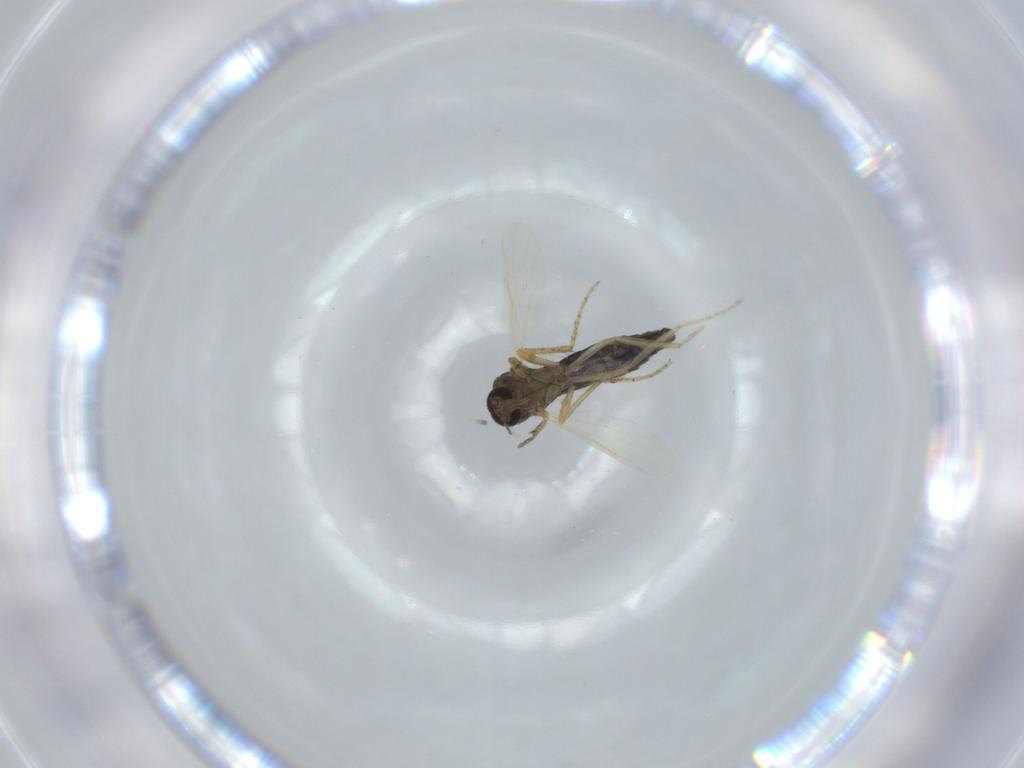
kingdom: Animalia
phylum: Arthropoda
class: Insecta
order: Diptera
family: Ceratopogonidae
